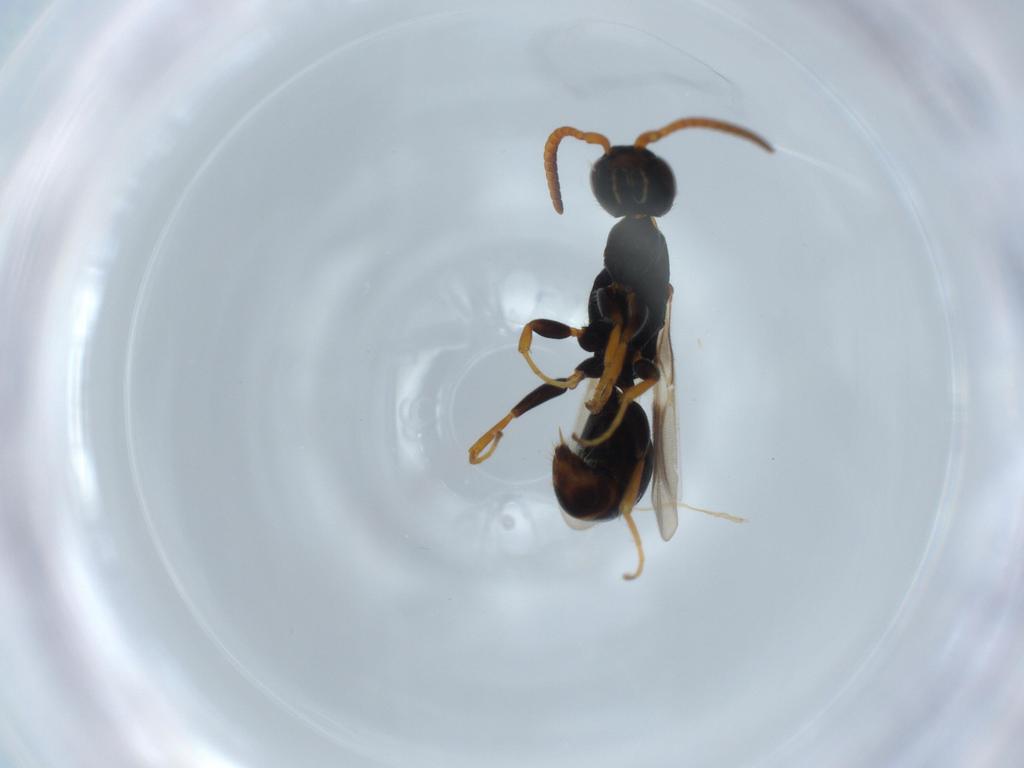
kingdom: Animalia
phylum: Arthropoda
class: Insecta
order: Hymenoptera
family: Bethylidae
